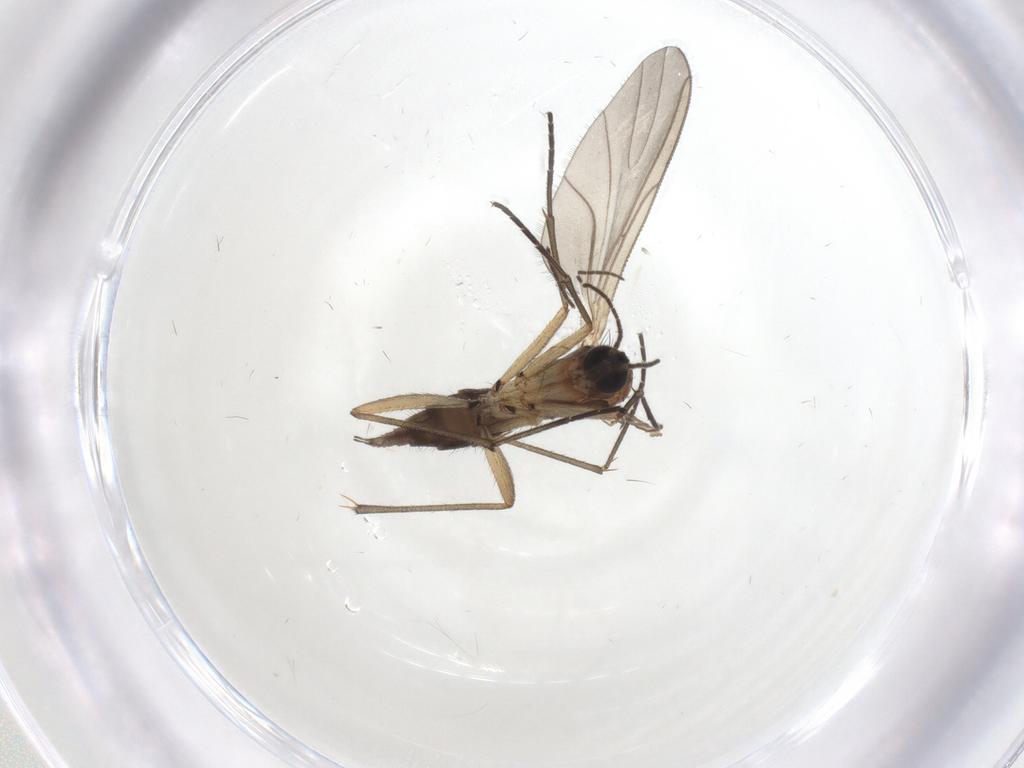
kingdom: Animalia
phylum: Arthropoda
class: Insecta
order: Diptera
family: Sciaridae
